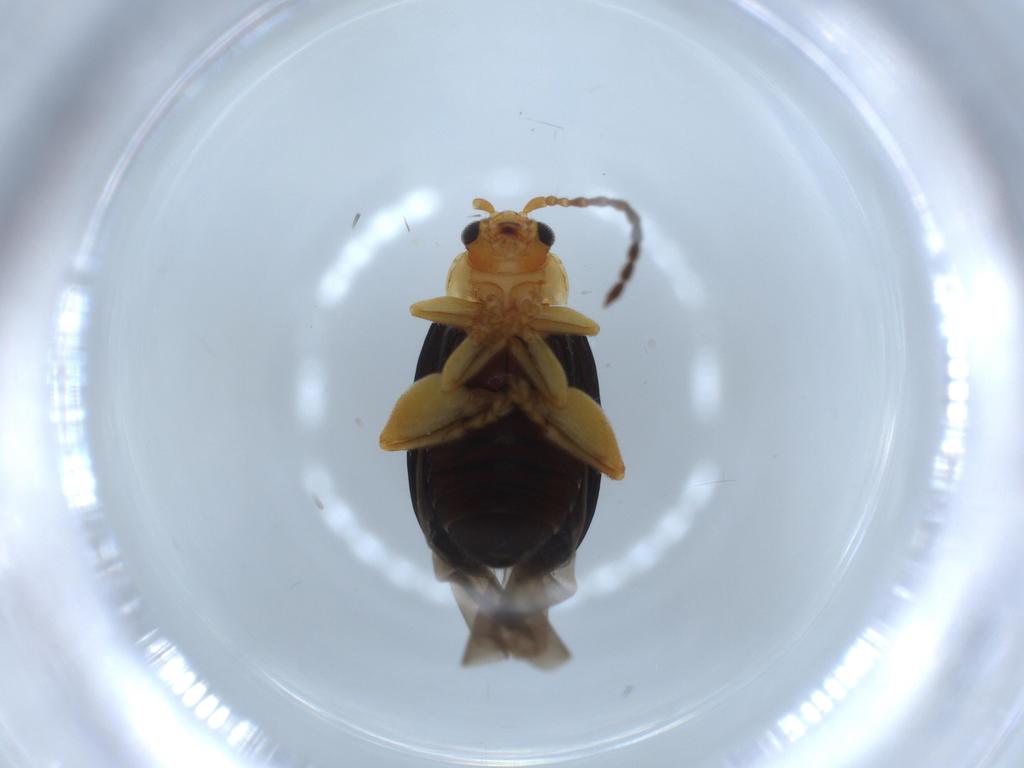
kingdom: Animalia
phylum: Arthropoda
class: Insecta
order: Coleoptera
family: Chrysomelidae
